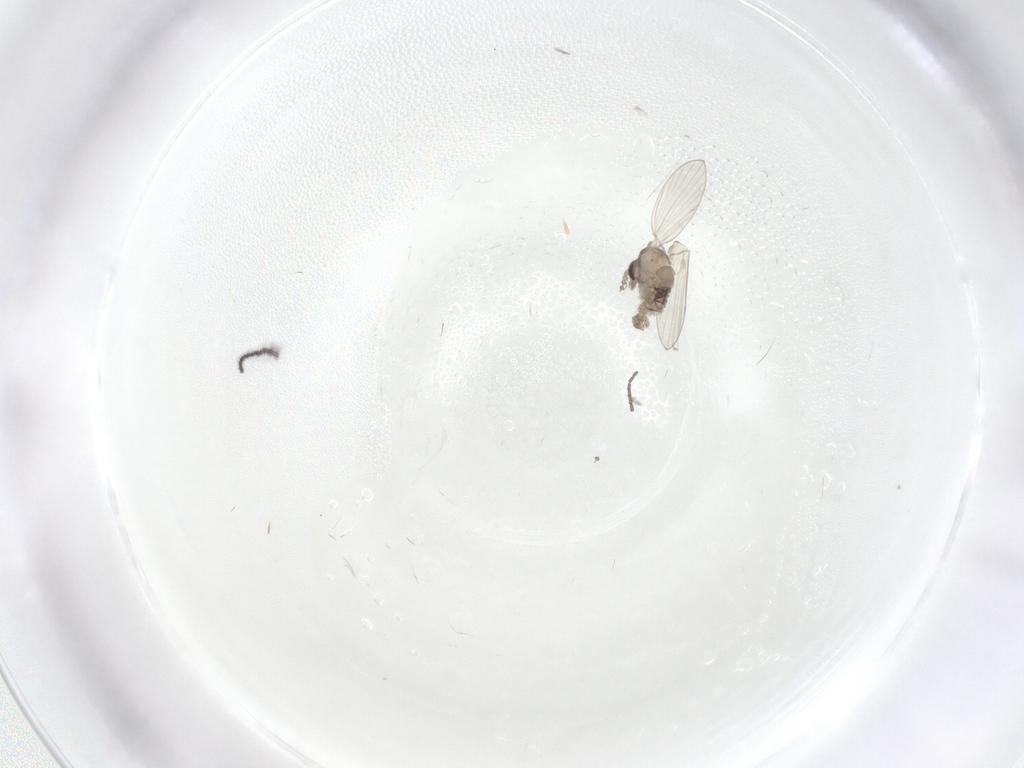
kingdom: Animalia
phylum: Arthropoda
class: Insecta
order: Diptera
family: Psychodidae
